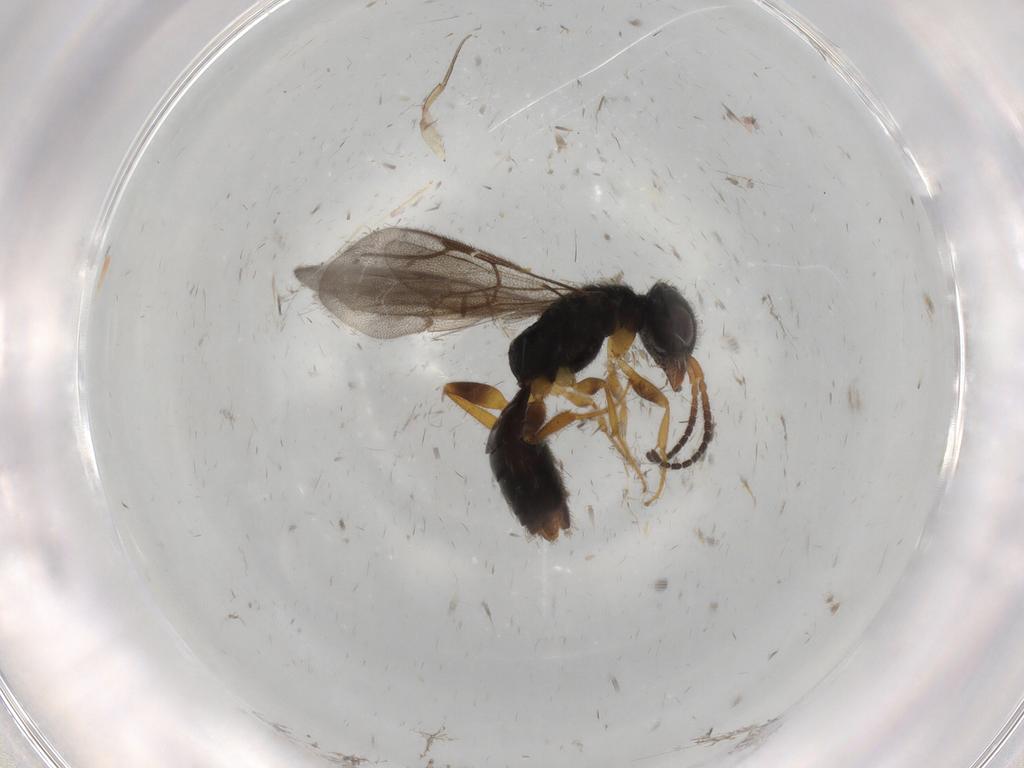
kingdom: Animalia
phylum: Arthropoda
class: Insecta
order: Hymenoptera
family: Bethylidae
